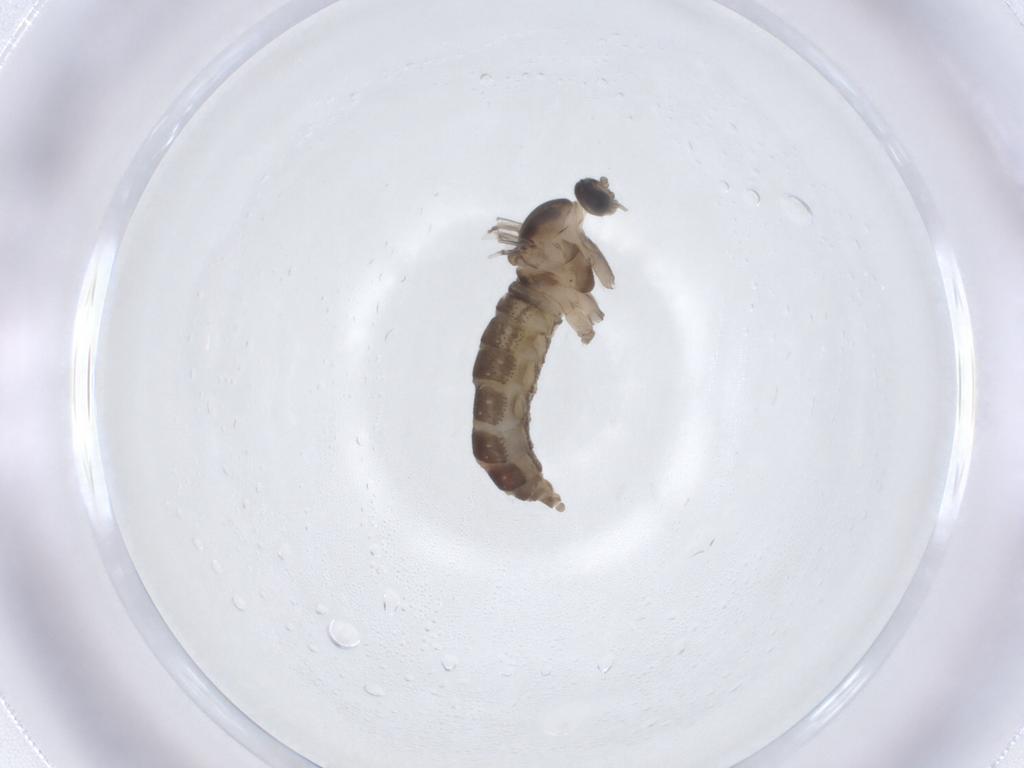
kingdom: Animalia
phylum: Arthropoda
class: Insecta
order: Diptera
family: Cecidomyiidae
